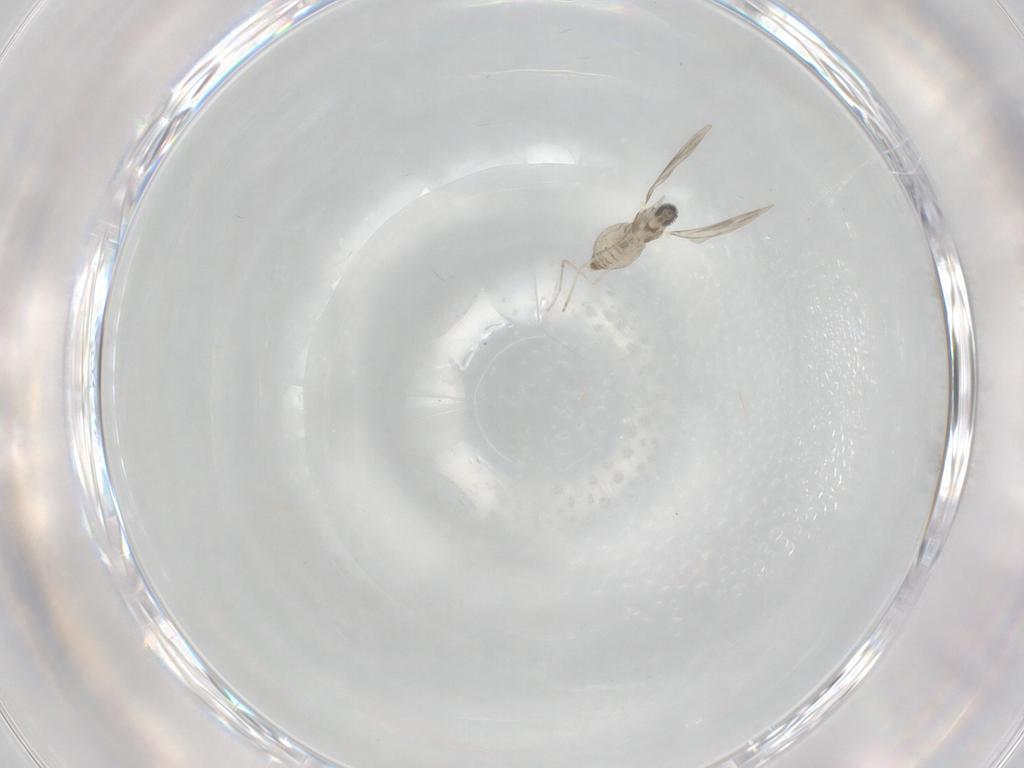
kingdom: Animalia
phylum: Arthropoda
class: Insecta
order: Diptera
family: Cecidomyiidae
